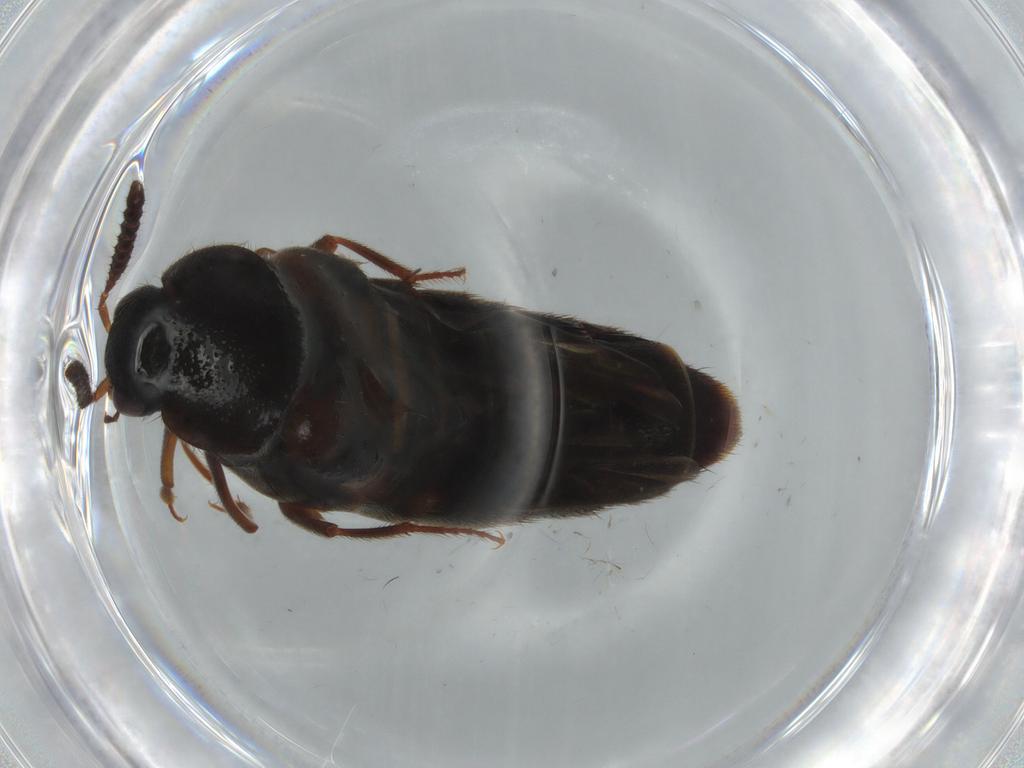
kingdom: Animalia
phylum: Arthropoda
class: Insecta
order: Coleoptera
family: Staphylinidae
